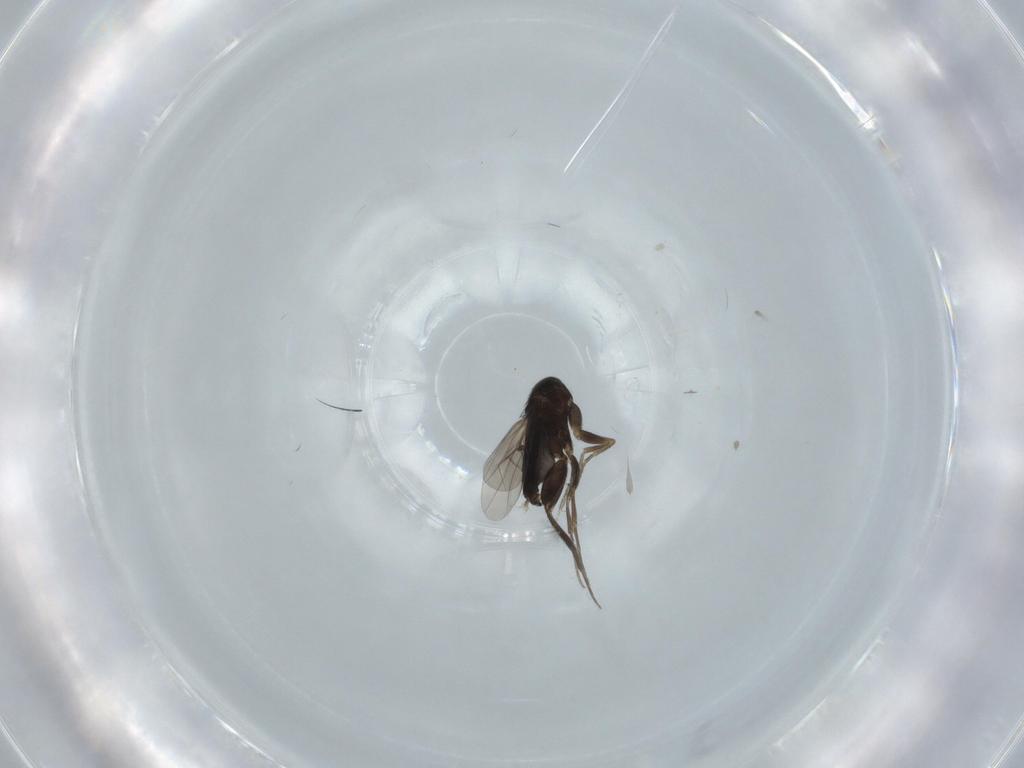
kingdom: Animalia
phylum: Arthropoda
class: Insecta
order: Diptera
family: Phoridae
